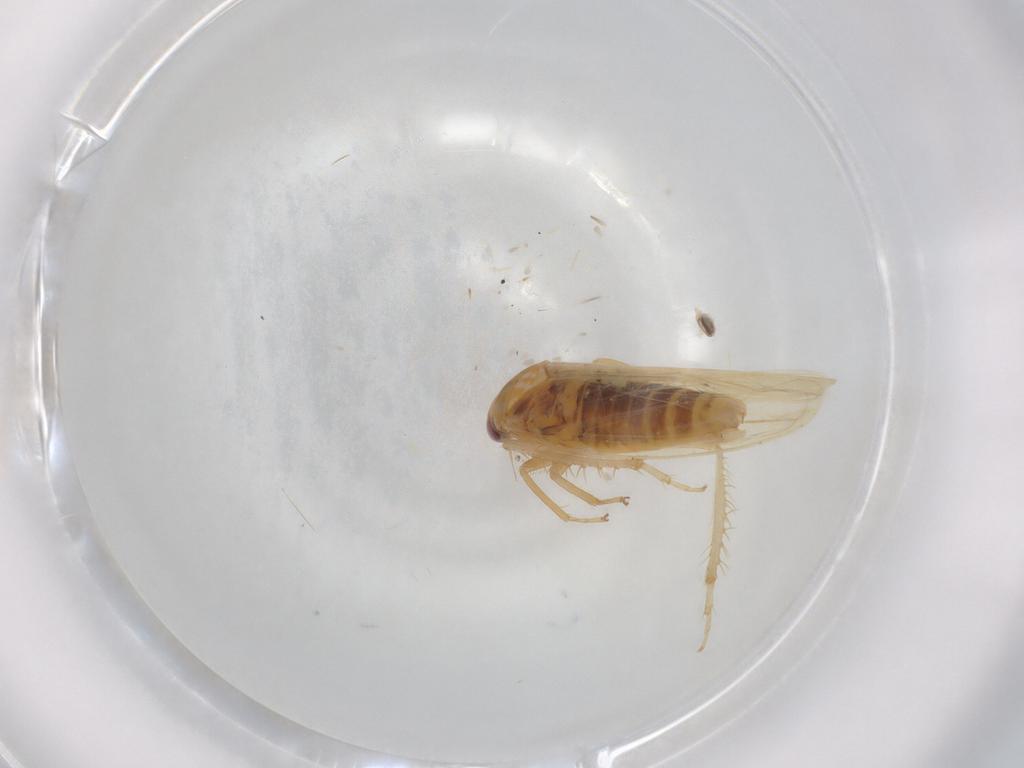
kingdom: Animalia
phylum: Arthropoda
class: Insecta
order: Hemiptera
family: Cicadellidae
